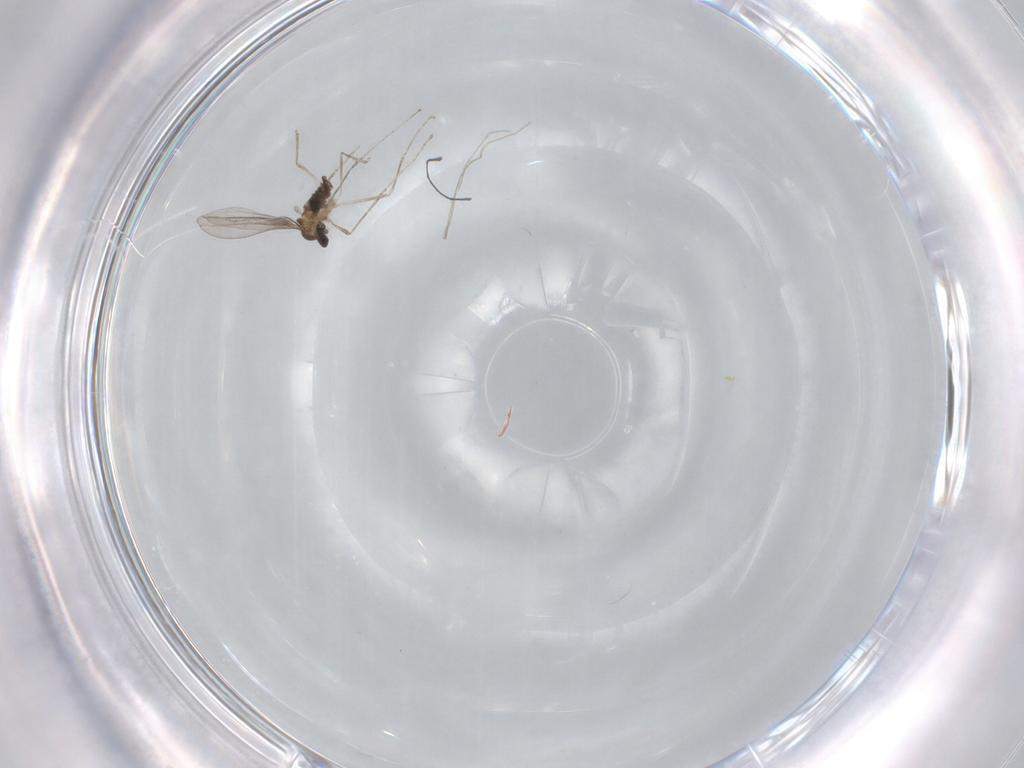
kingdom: Animalia
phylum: Arthropoda
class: Insecta
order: Diptera
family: Cecidomyiidae
